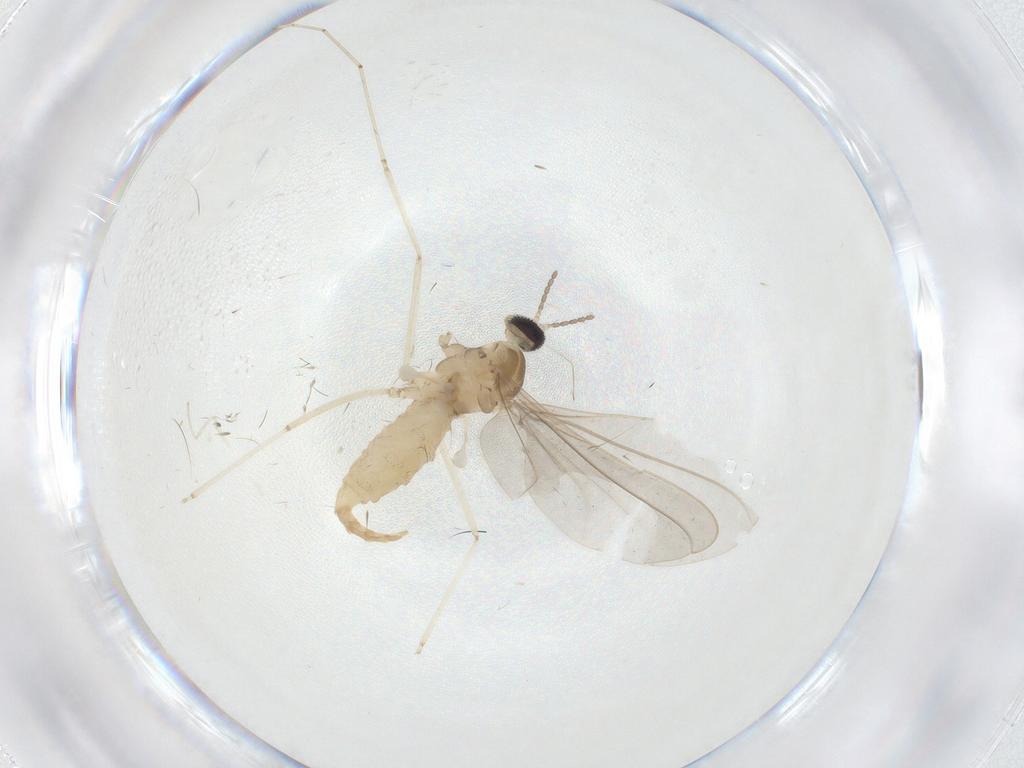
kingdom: Animalia
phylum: Arthropoda
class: Insecta
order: Diptera
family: Cecidomyiidae
